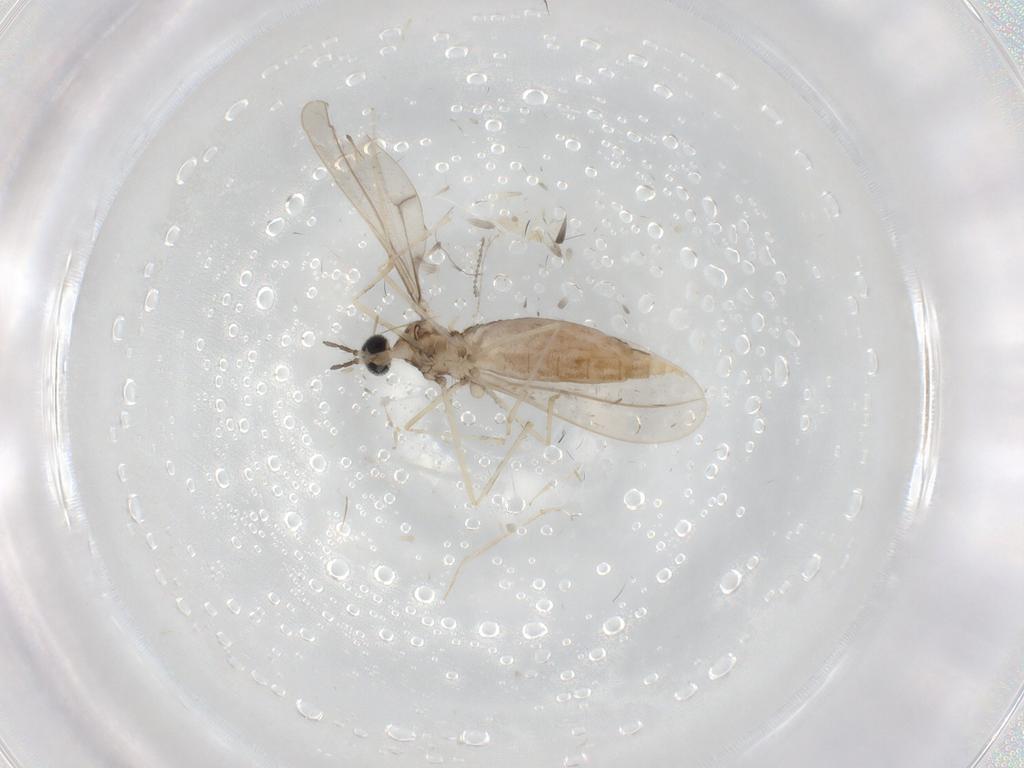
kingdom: Animalia
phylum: Arthropoda
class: Insecta
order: Diptera
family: Cecidomyiidae
